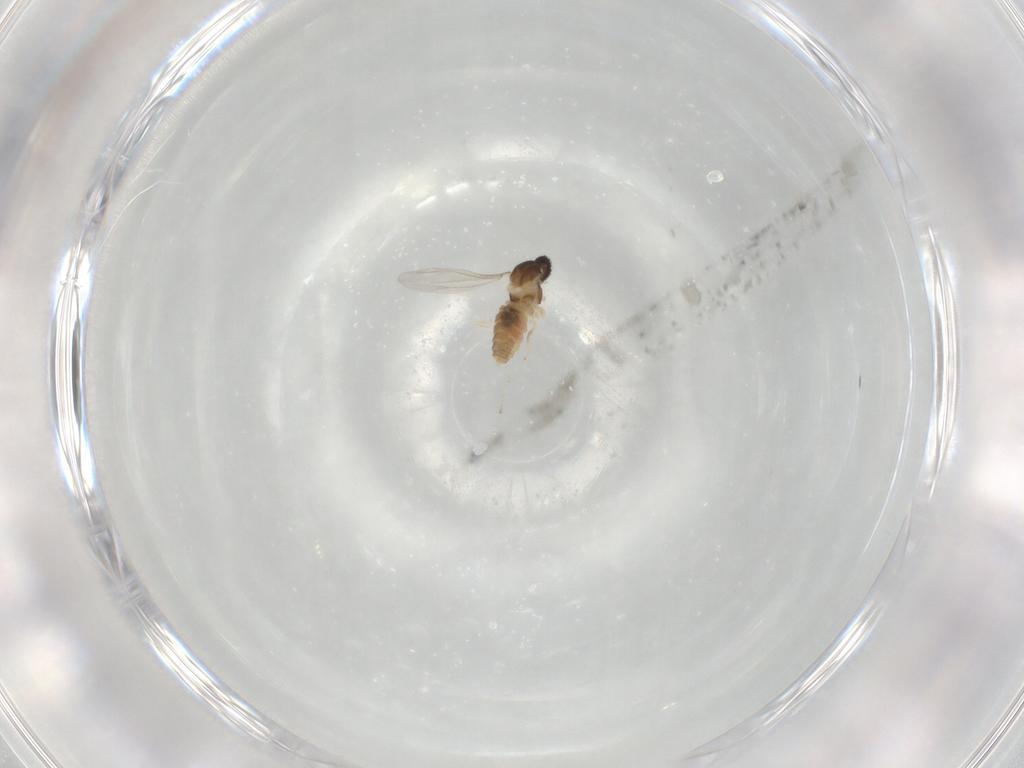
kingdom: Animalia
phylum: Arthropoda
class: Insecta
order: Diptera
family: Cecidomyiidae
